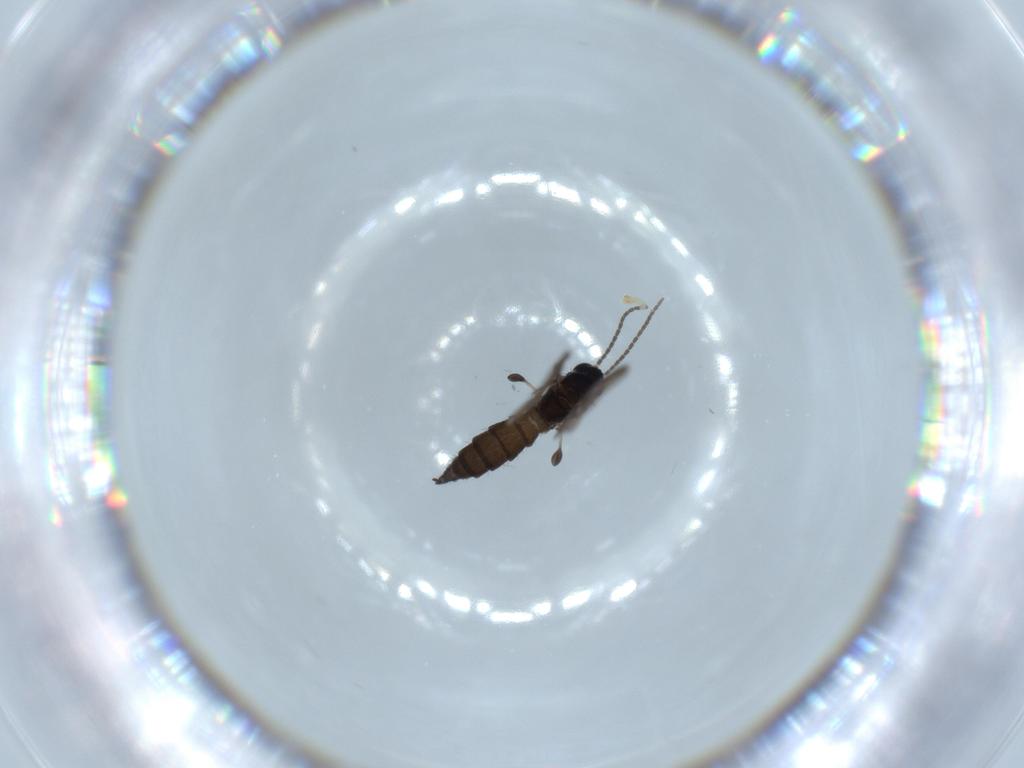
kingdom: Animalia
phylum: Arthropoda
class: Insecta
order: Diptera
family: Sciaridae
